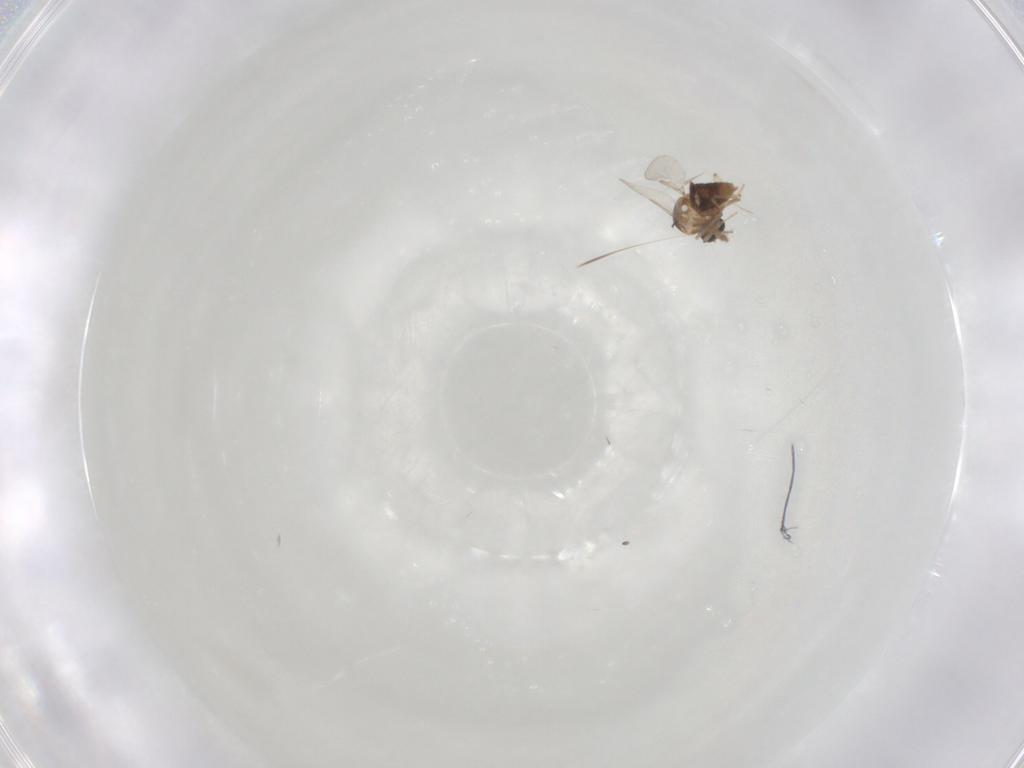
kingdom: Animalia
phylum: Arthropoda
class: Insecta
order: Diptera
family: Ceratopogonidae
